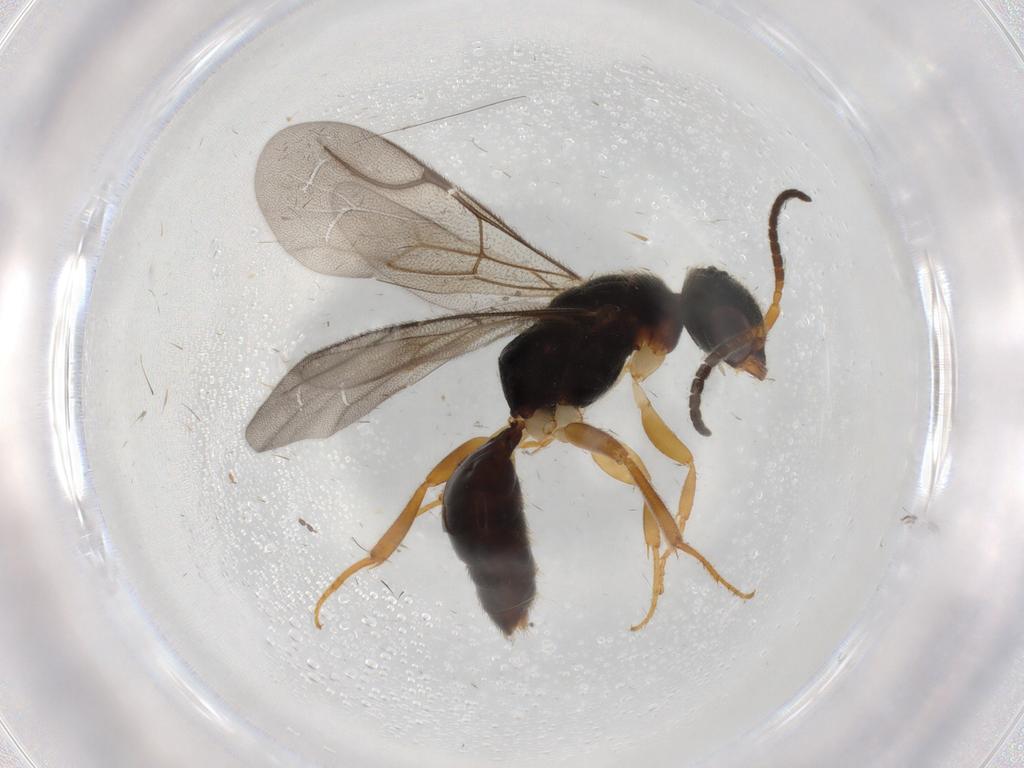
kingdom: Animalia
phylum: Arthropoda
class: Insecta
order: Hymenoptera
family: Bethylidae
